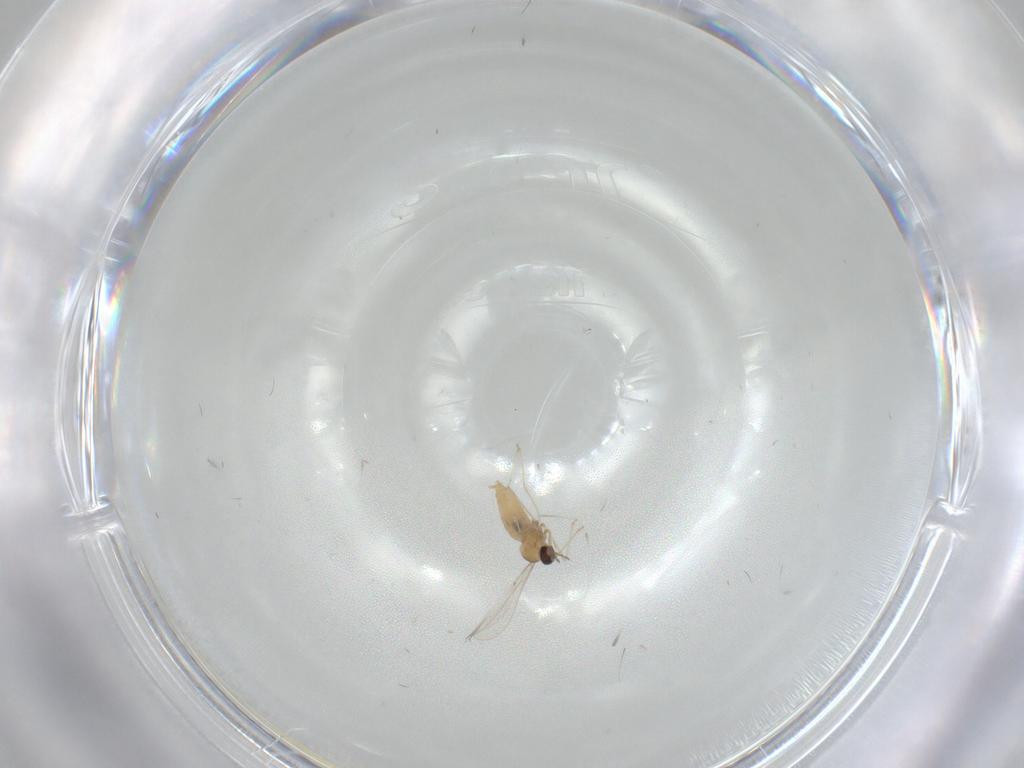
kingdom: Animalia
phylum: Arthropoda
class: Insecta
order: Diptera
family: Cecidomyiidae
